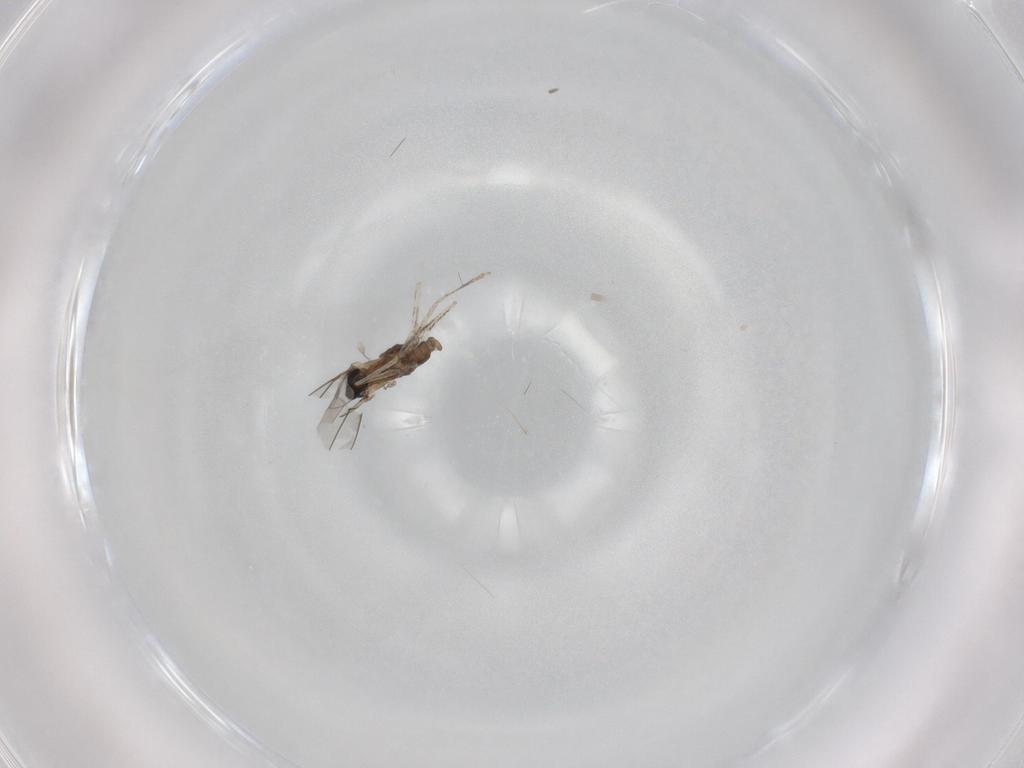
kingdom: Animalia
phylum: Arthropoda
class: Insecta
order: Diptera
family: Cecidomyiidae
